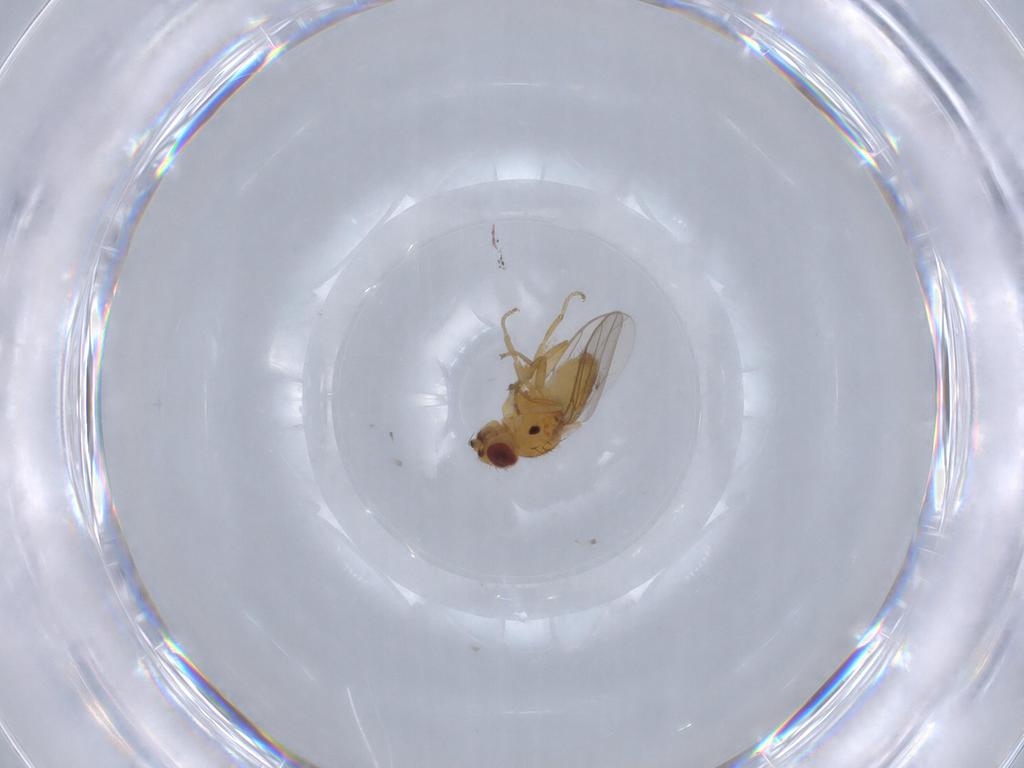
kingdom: Animalia
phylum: Arthropoda
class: Insecta
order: Diptera
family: Chloropidae
